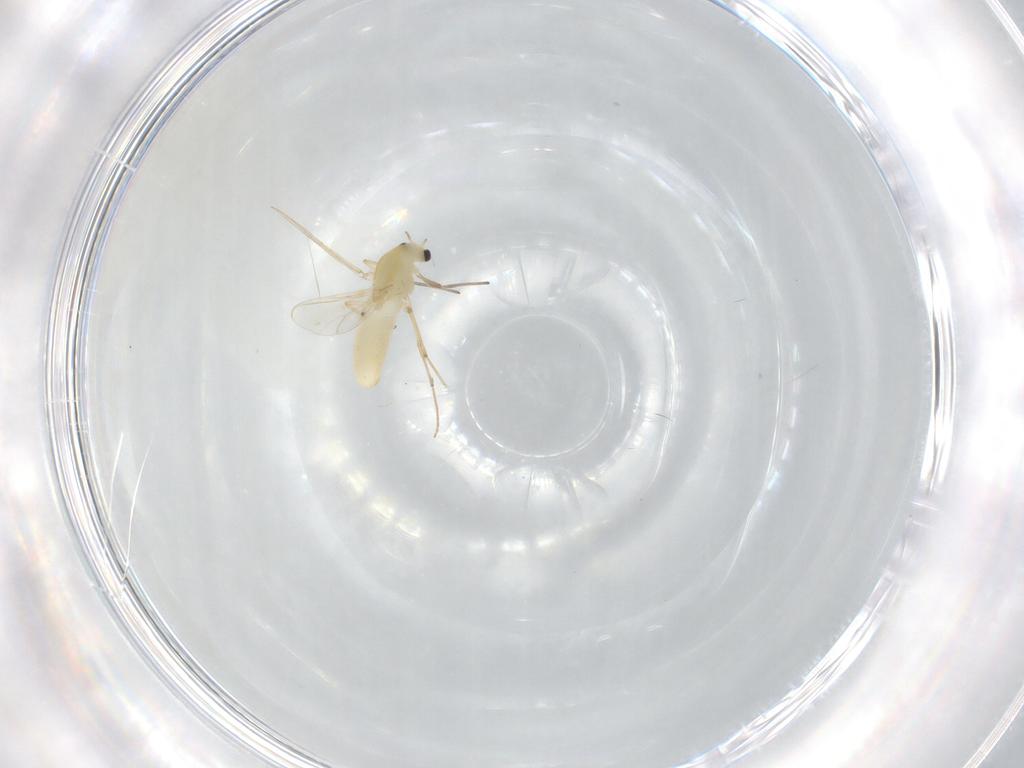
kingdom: Animalia
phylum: Arthropoda
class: Insecta
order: Diptera
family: Chironomidae
